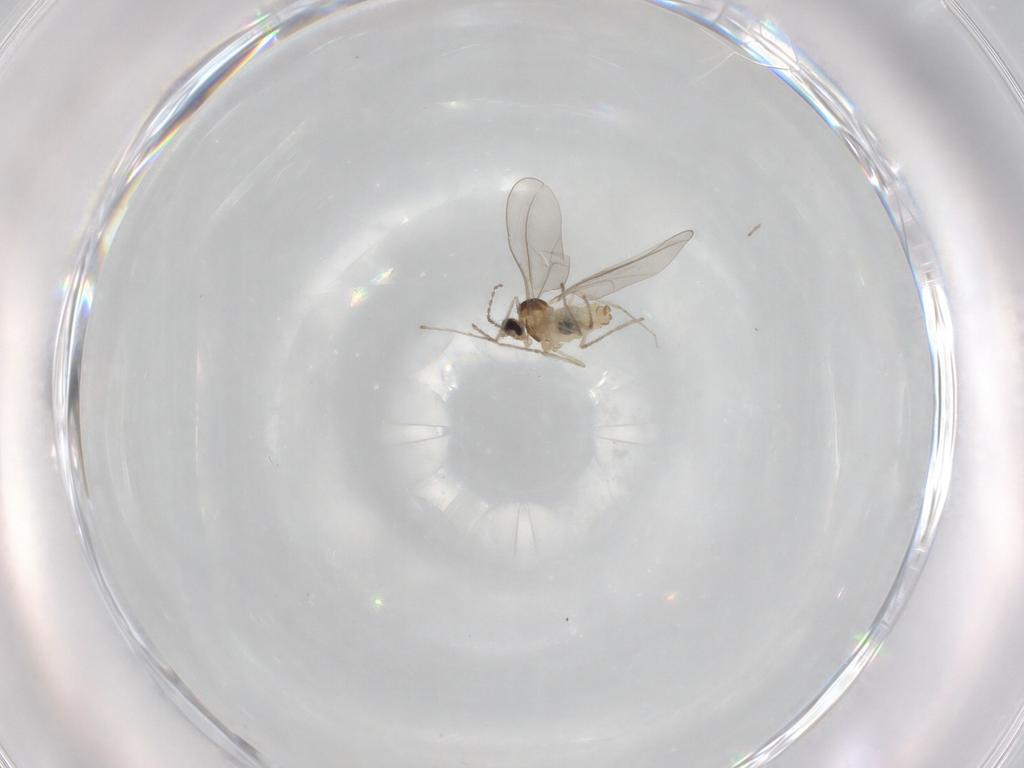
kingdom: Animalia
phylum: Arthropoda
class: Insecta
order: Diptera
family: Cecidomyiidae
